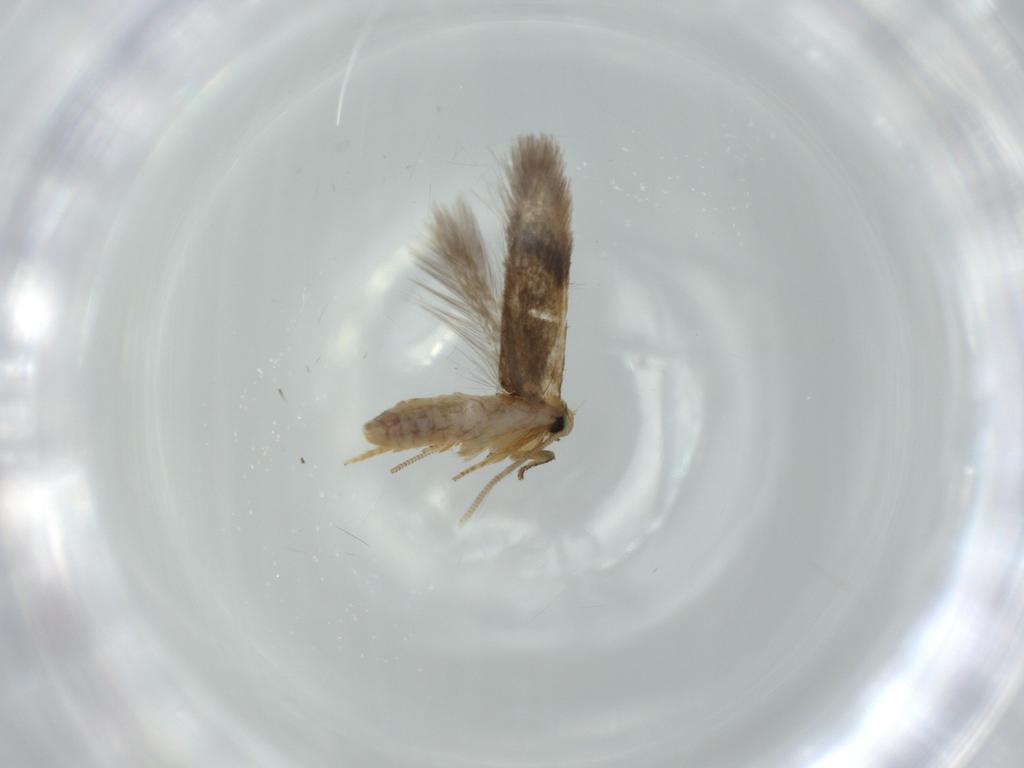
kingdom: Animalia
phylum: Arthropoda
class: Insecta
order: Lepidoptera
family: Nepticulidae
